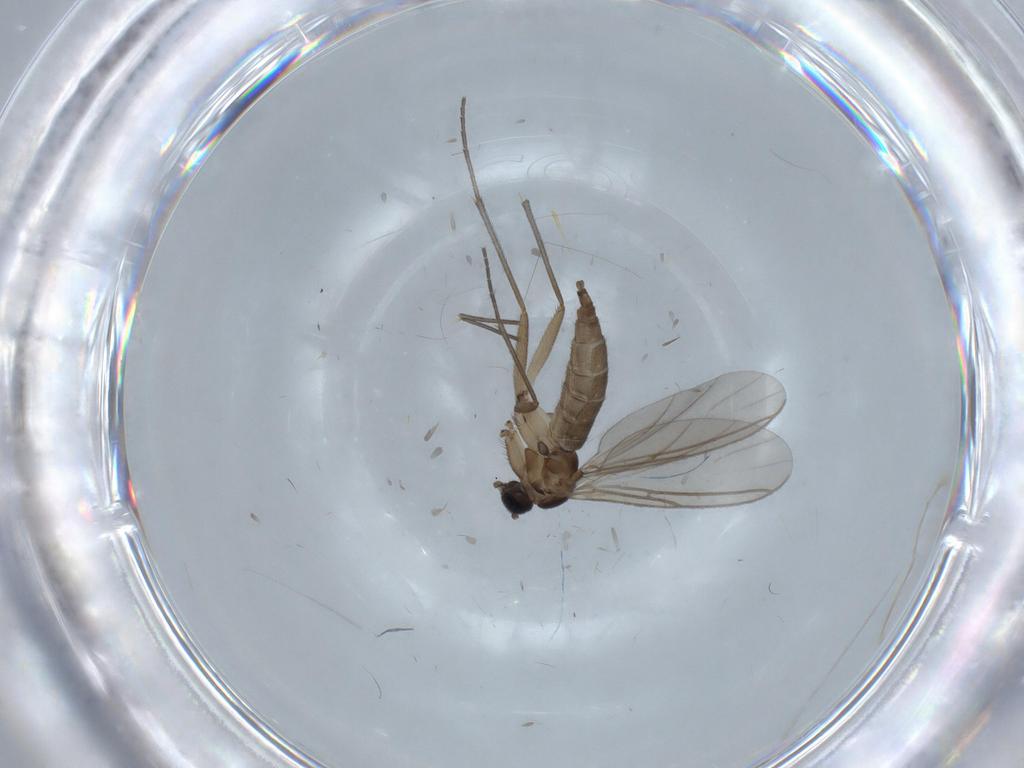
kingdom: Animalia
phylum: Arthropoda
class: Insecta
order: Diptera
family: Sciaridae
